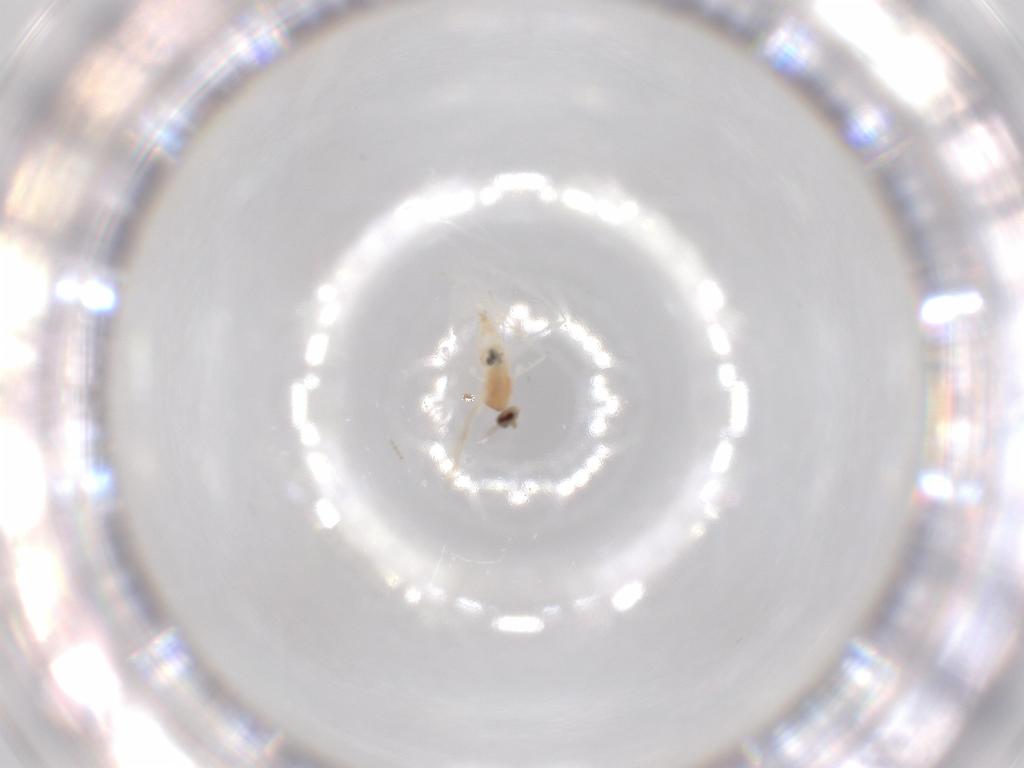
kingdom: Animalia
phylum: Arthropoda
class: Insecta
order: Diptera
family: Cecidomyiidae
